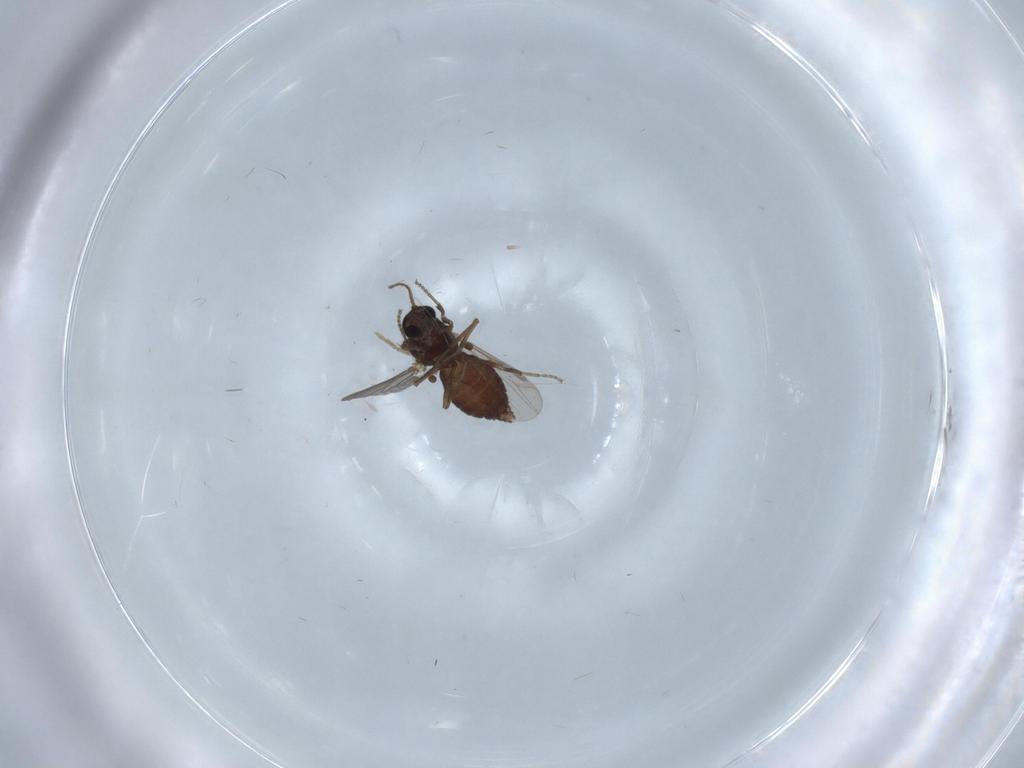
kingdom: Animalia
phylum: Arthropoda
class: Insecta
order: Diptera
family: Ceratopogonidae
